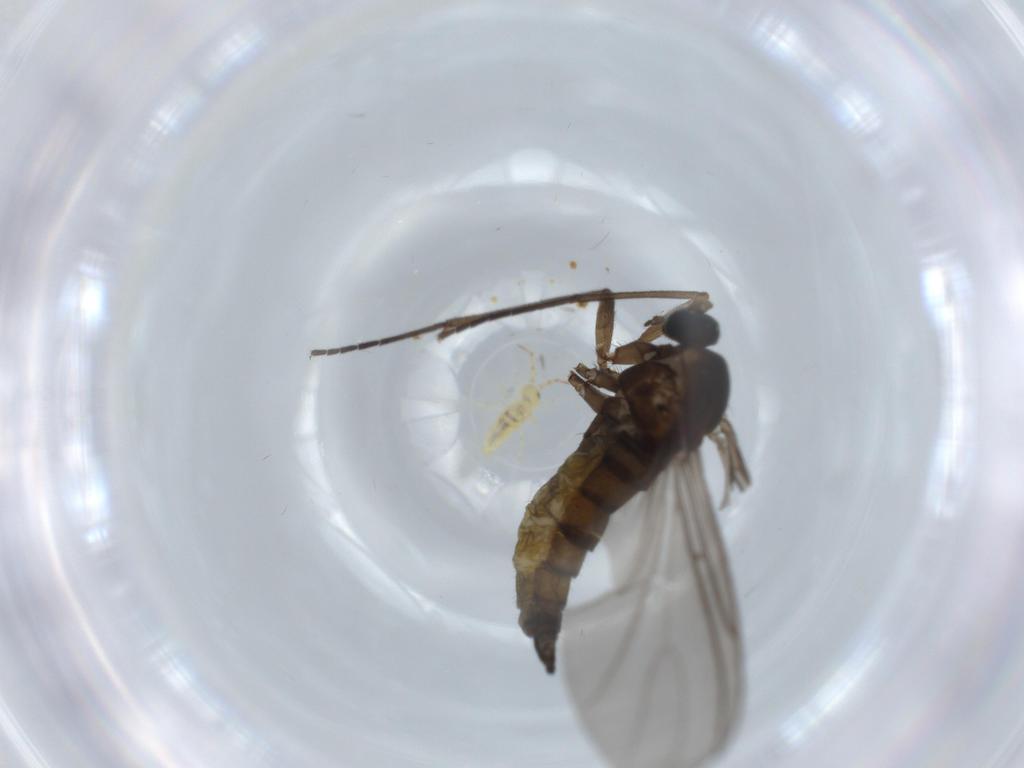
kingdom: Animalia
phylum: Arthropoda
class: Insecta
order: Diptera
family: Sciaridae
